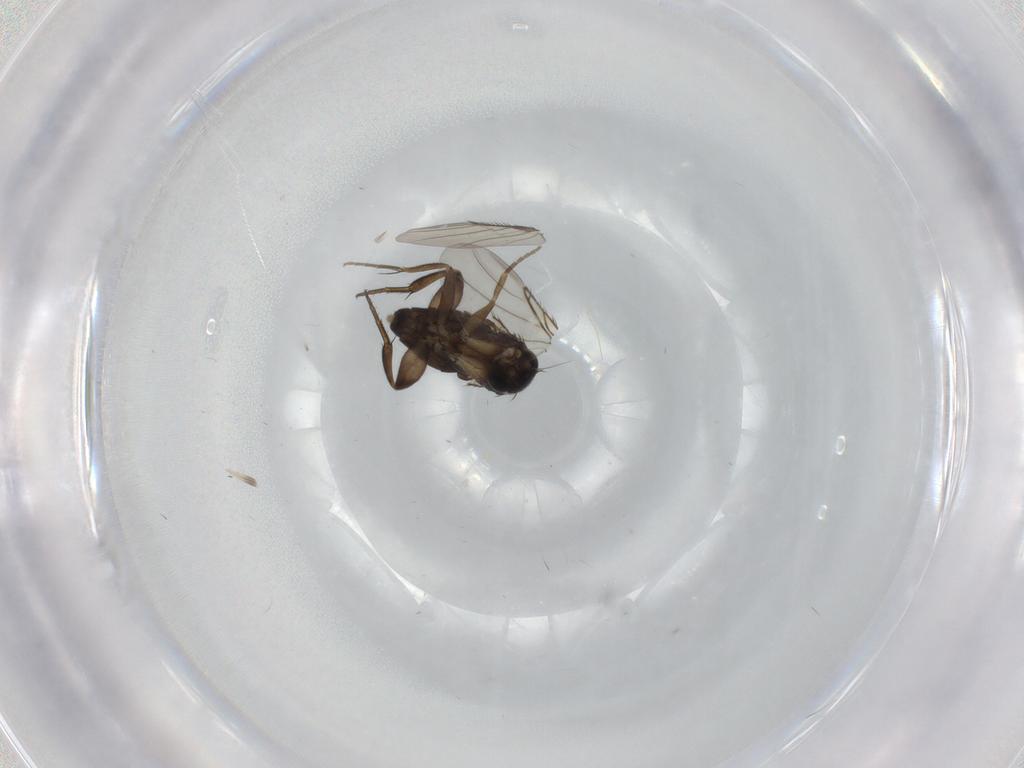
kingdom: Animalia
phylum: Arthropoda
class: Insecta
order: Diptera
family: Phoridae
